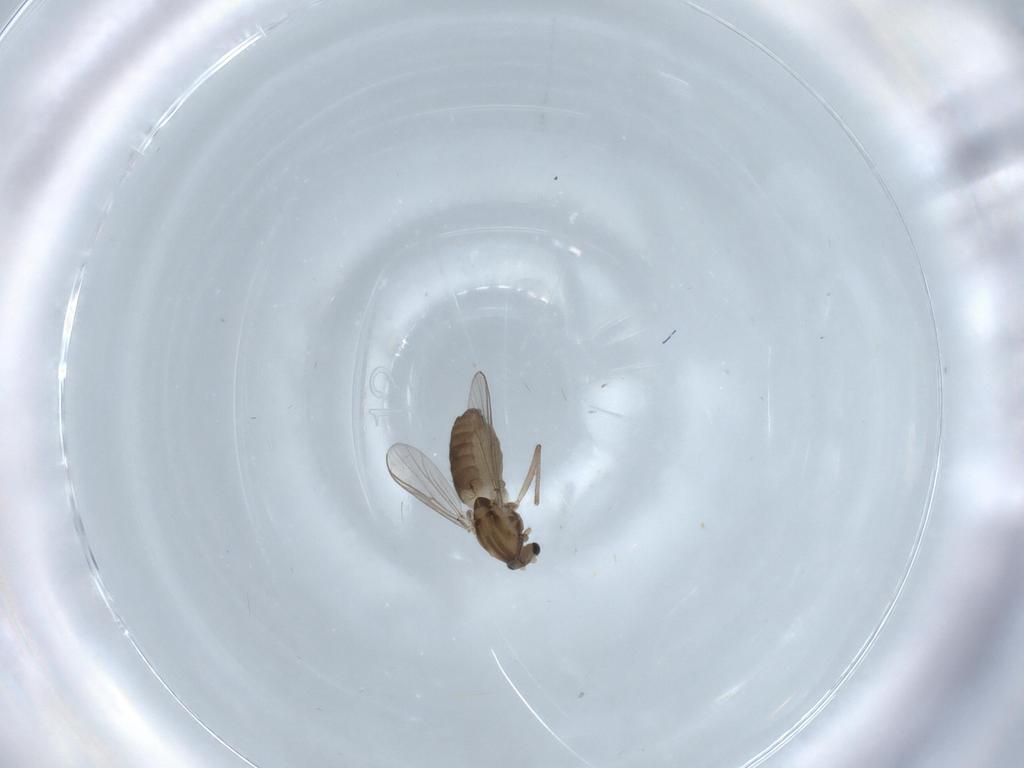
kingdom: Animalia
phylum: Arthropoda
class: Insecta
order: Diptera
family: Chironomidae
